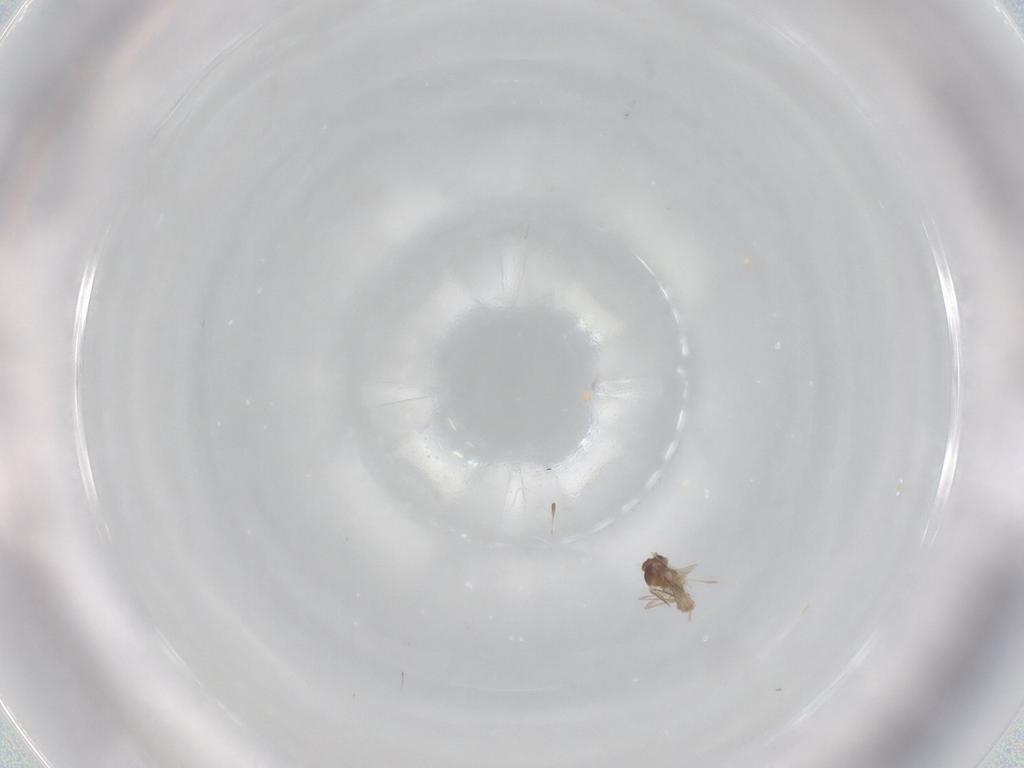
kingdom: Animalia
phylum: Arthropoda
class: Insecta
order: Diptera
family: Cecidomyiidae
